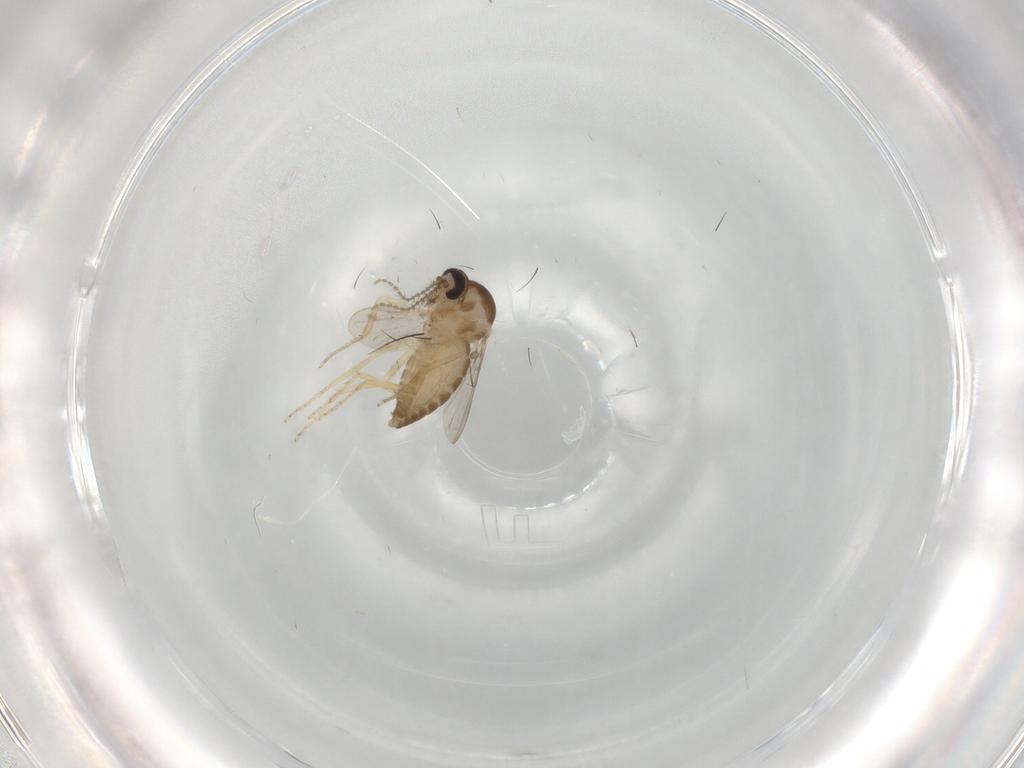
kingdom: Animalia
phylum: Arthropoda
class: Insecta
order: Diptera
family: Ceratopogonidae
